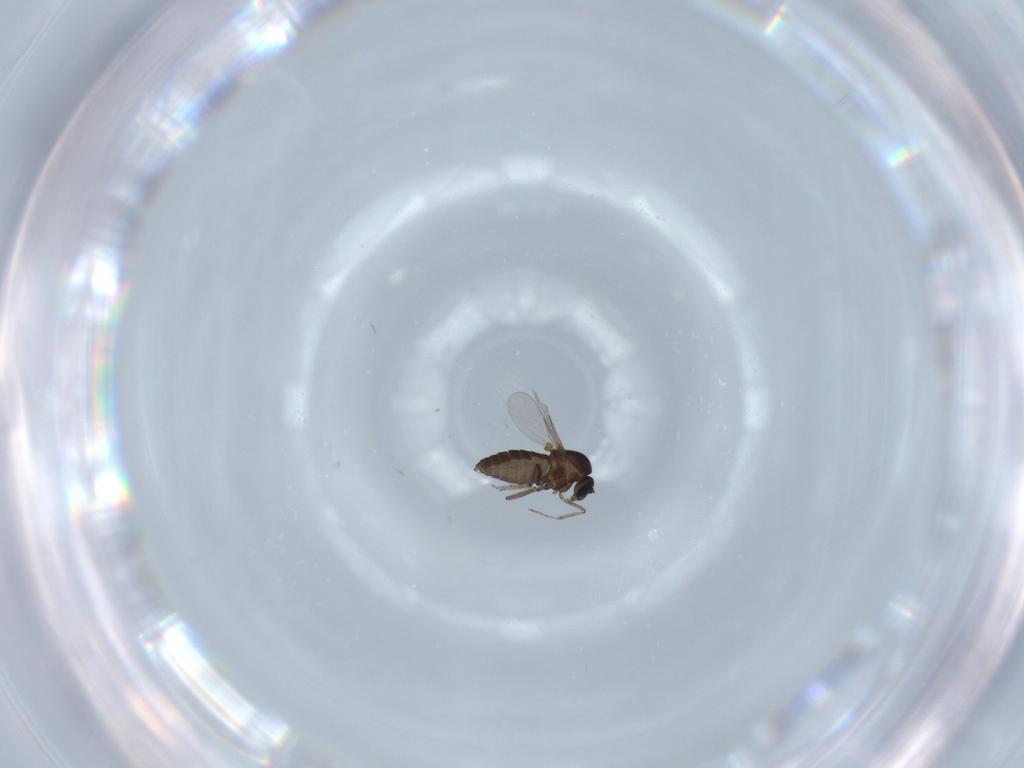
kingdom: Animalia
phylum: Arthropoda
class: Insecta
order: Diptera
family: Sciaridae
